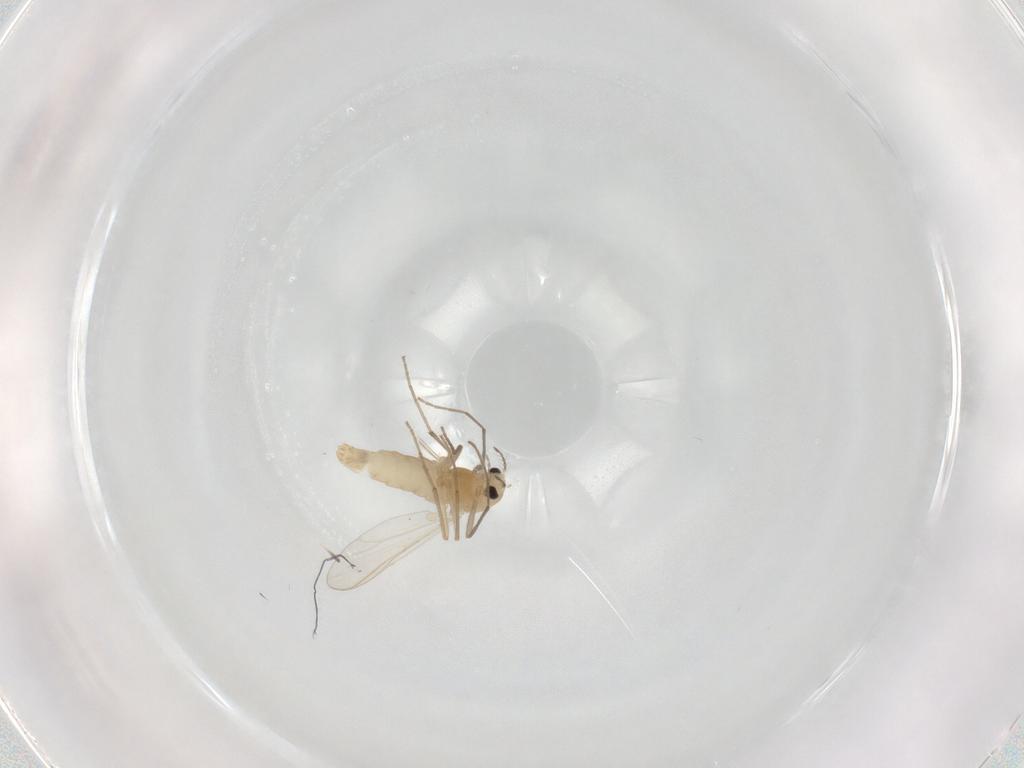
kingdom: Animalia
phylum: Arthropoda
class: Insecta
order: Diptera
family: Chironomidae
